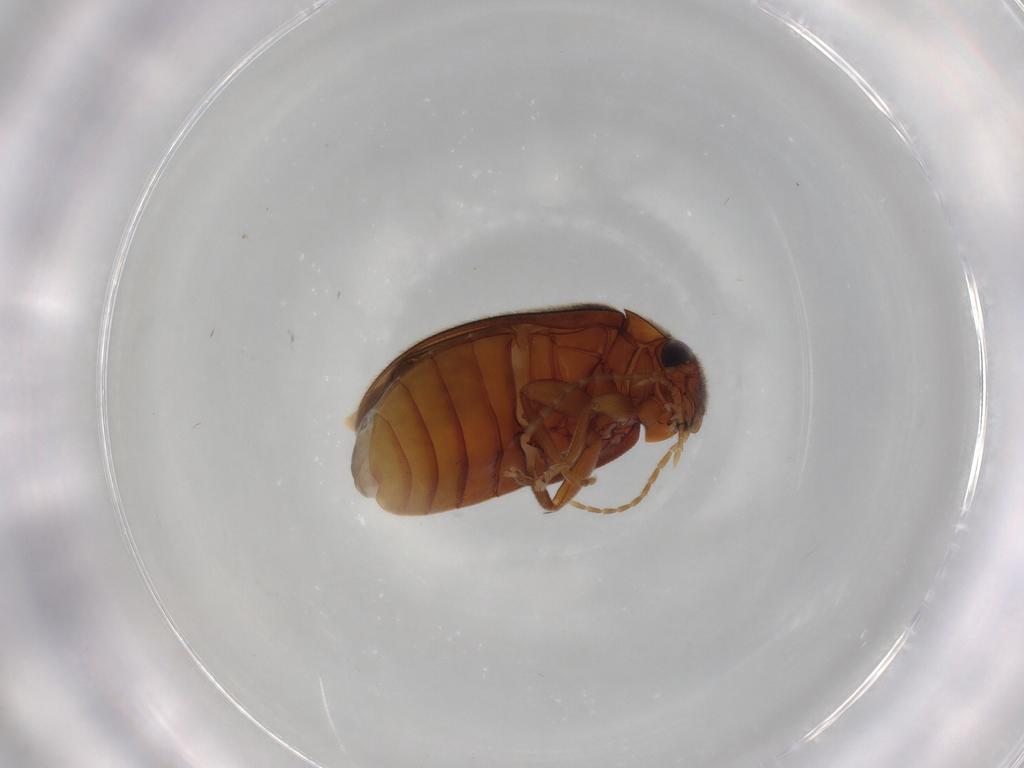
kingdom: Animalia
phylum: Arthropoda
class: Insecta
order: Coleoptera
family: Scirtidae
